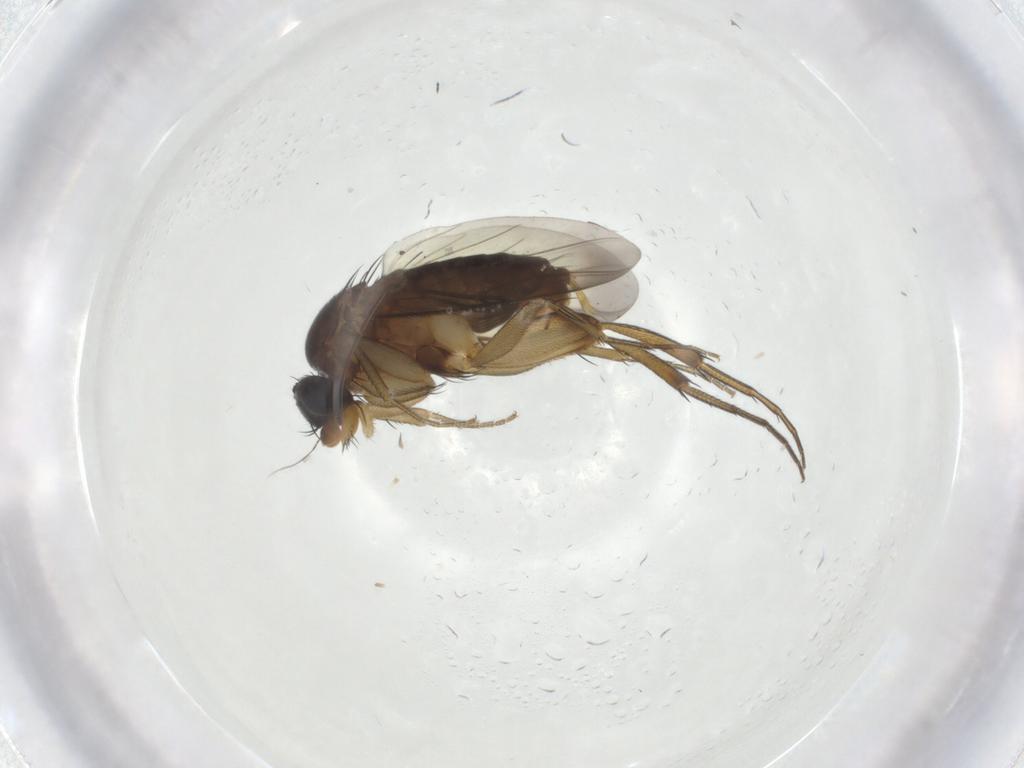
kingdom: Animalia
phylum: Arthropoda
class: Insecta
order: Diptera
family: Phoridae
